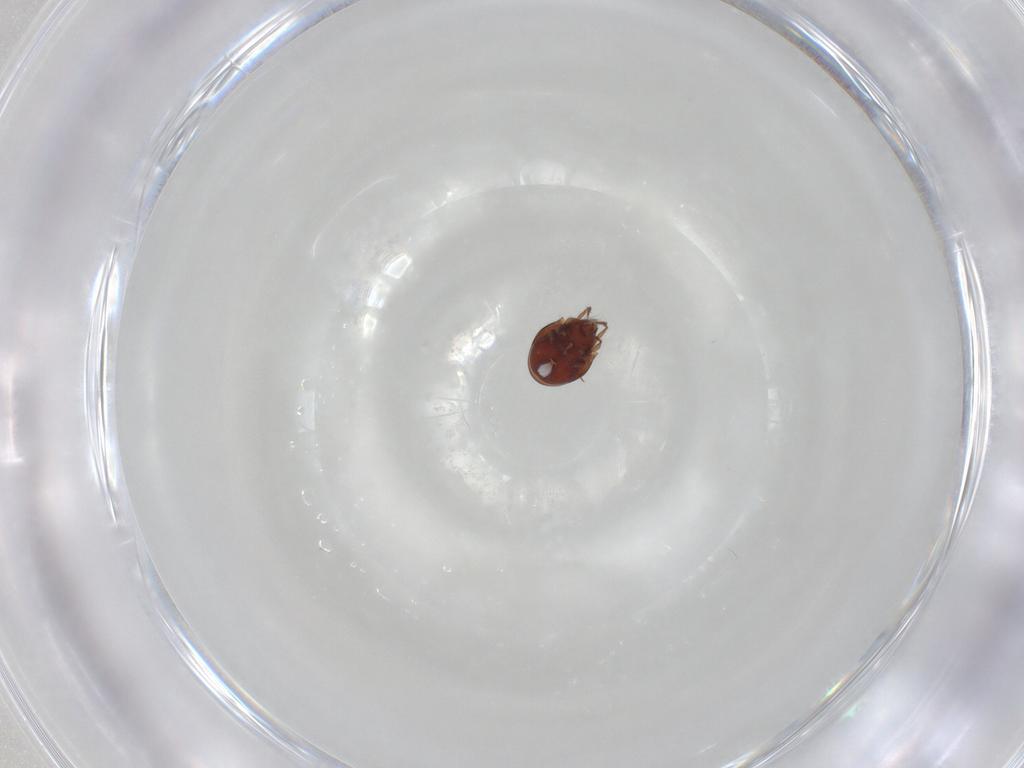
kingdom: Animalia
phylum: Arthropoda
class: Arachnida
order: Sarcoptiformes
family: Ceratozetidae
